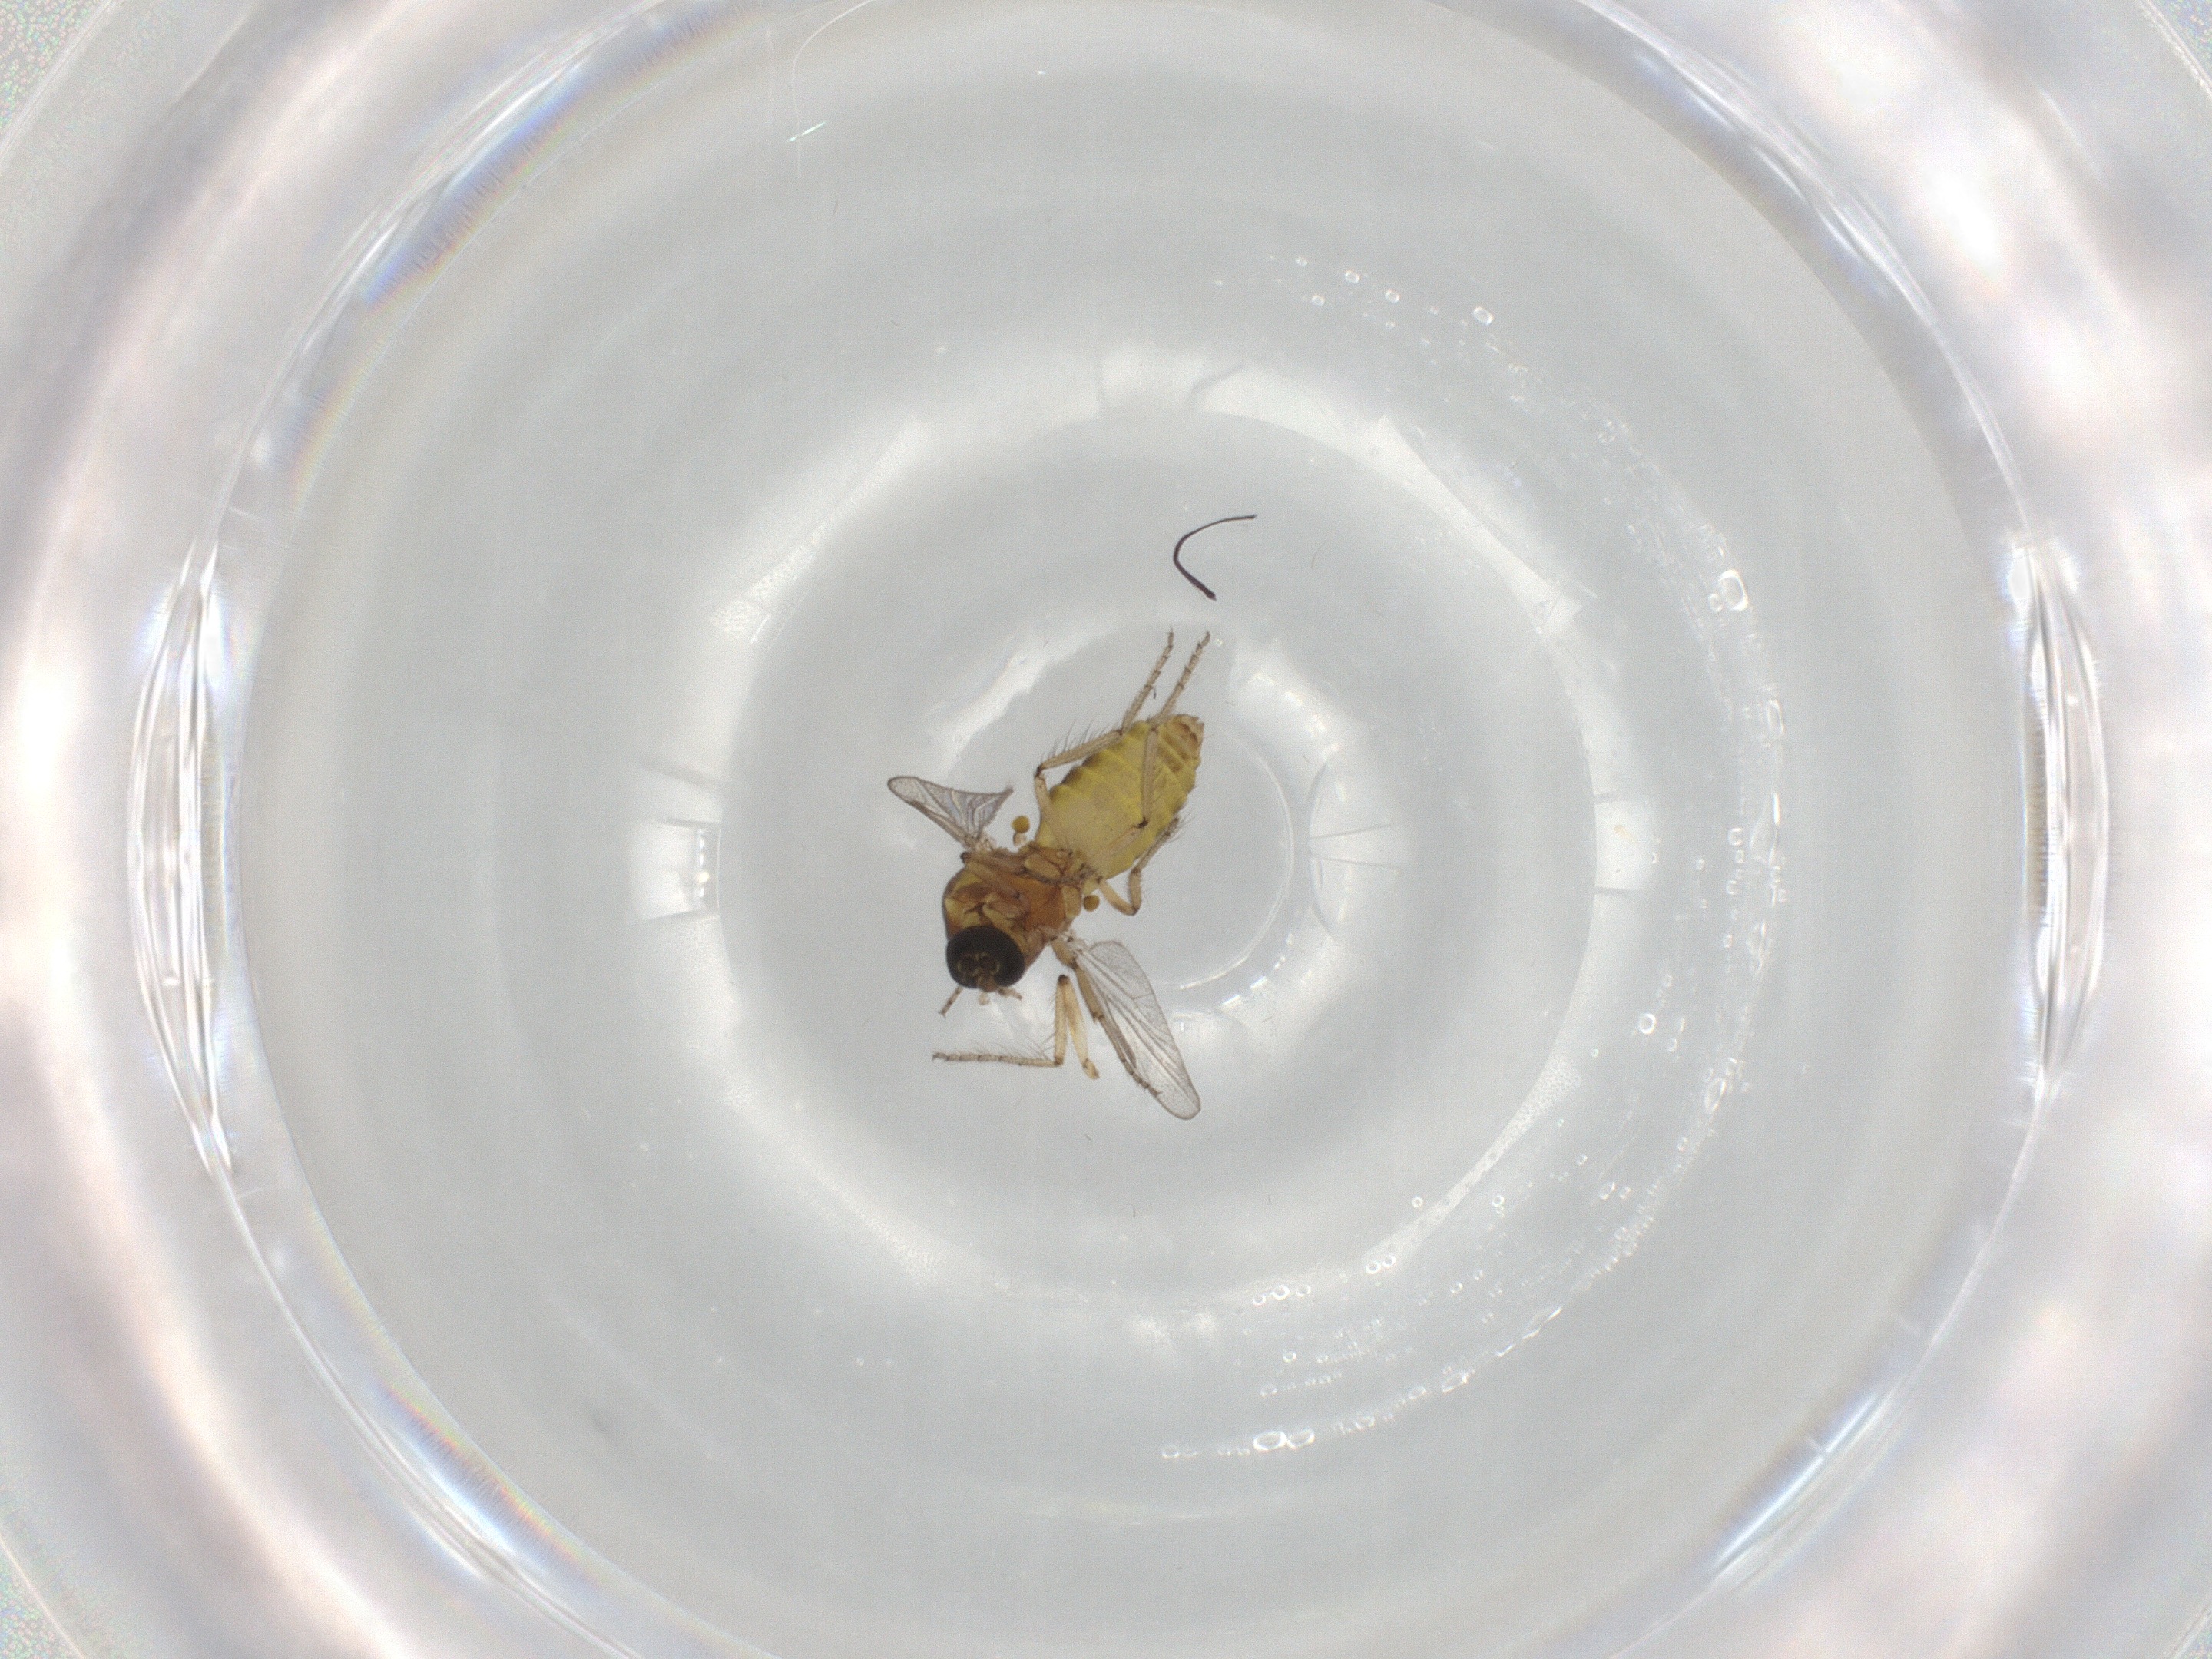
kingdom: Animalia
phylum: Arthropoda
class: Insecta
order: Diptera
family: Ceratopogonidae
